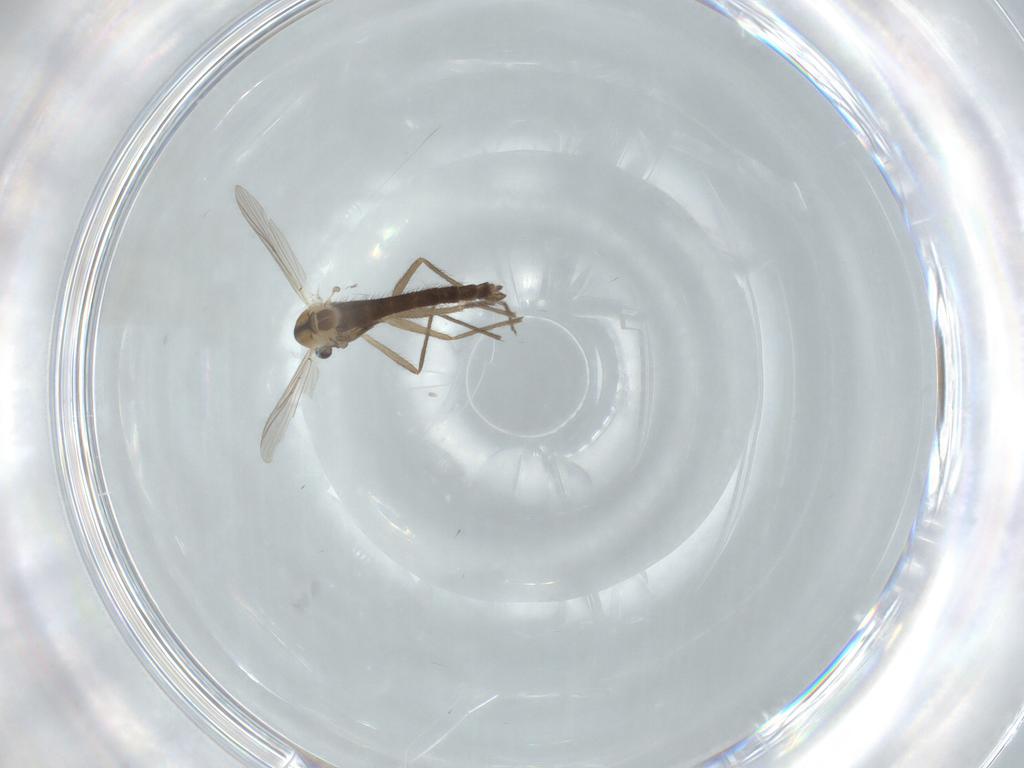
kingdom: Animalia
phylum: Arthropoda
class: Insecta
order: Diptera
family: Chironomidae
